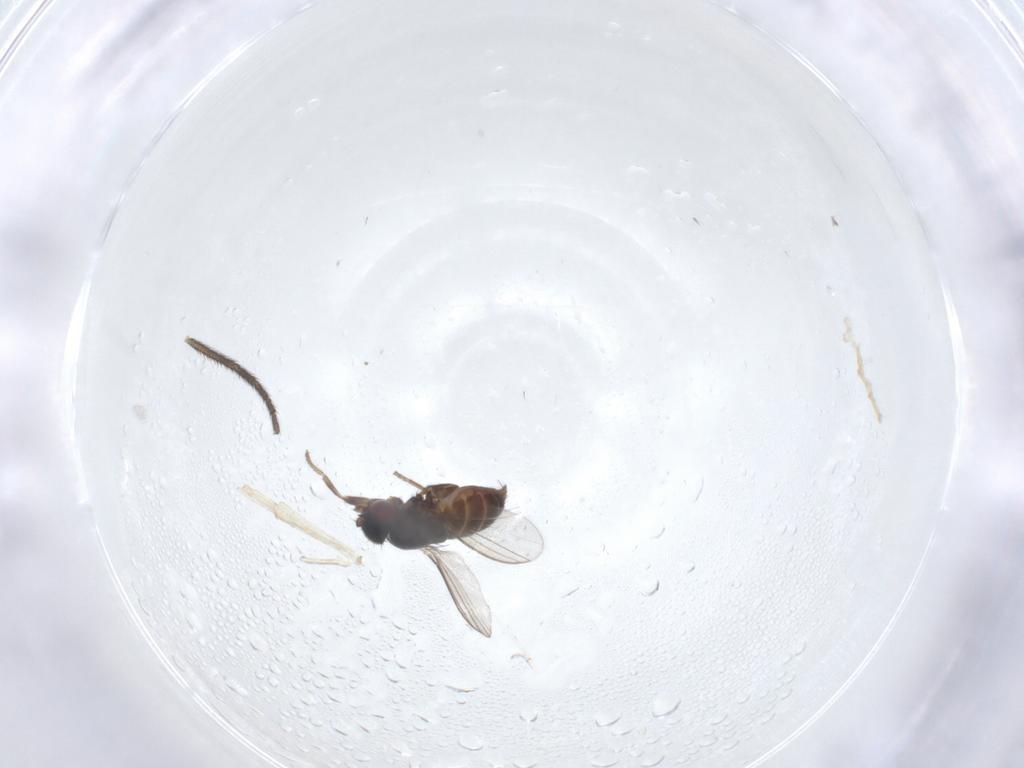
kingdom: Animalia
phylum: Arthropoda
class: Insecta
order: Diptera
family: Milichiidae
